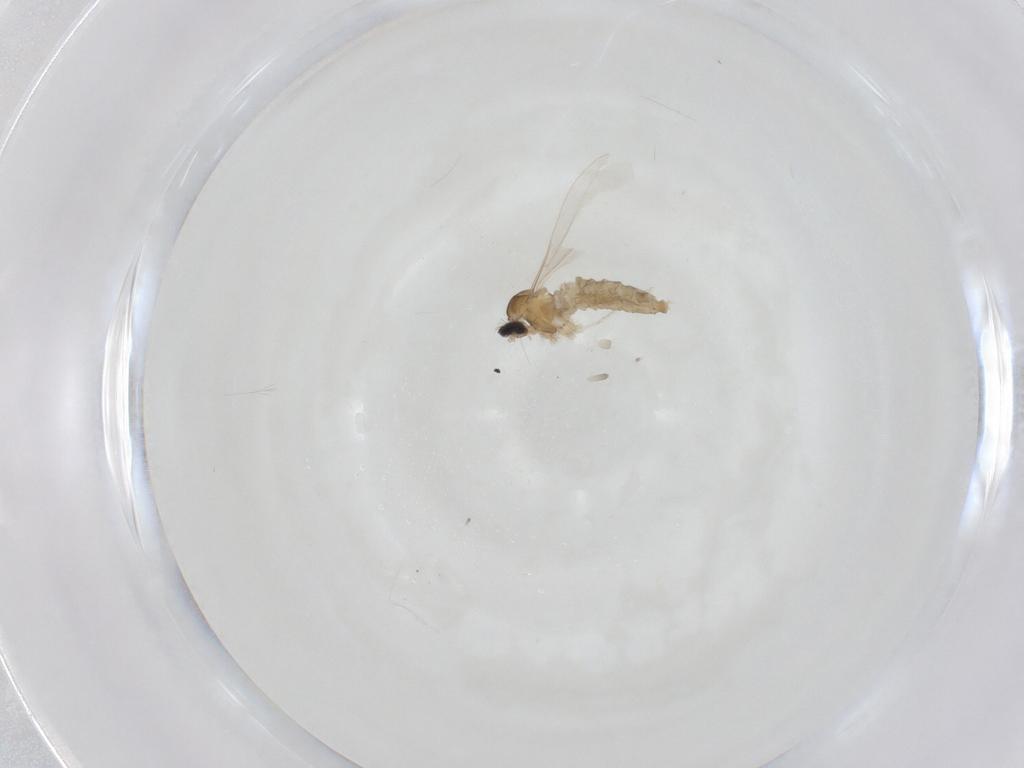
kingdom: Animalia
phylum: Arthropoda
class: Insecta
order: Diptera
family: Cecidomyiidae
